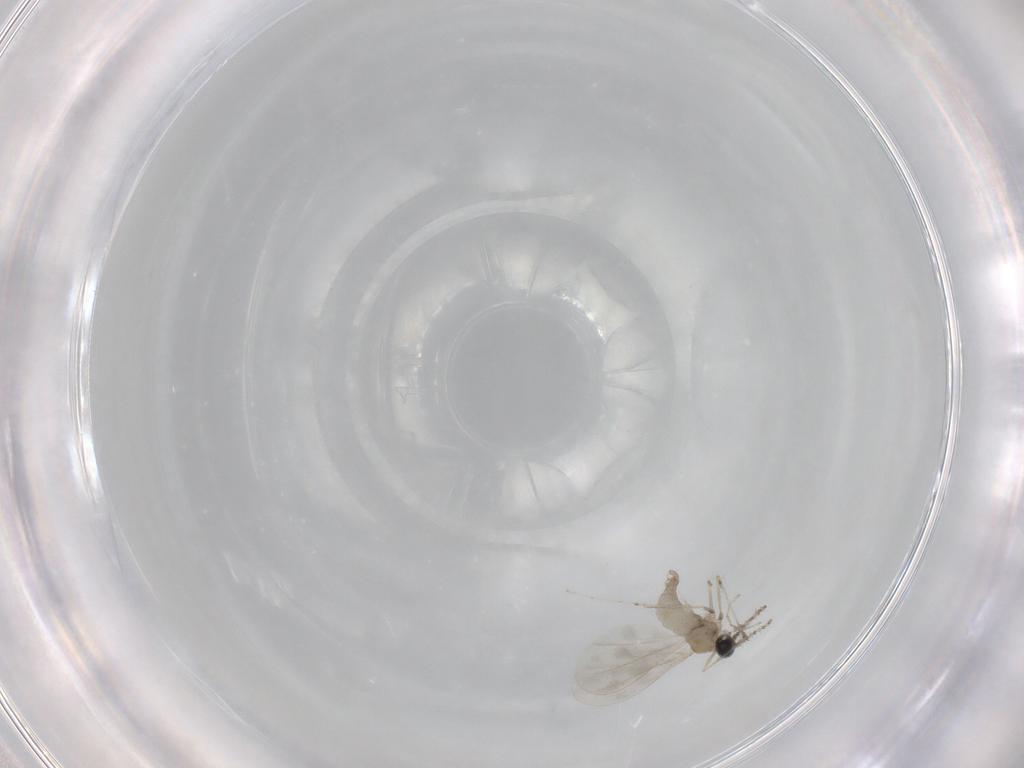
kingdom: Animalia
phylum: Arthropoda
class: Insecta
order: Diptera
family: Cecidomyiidae
